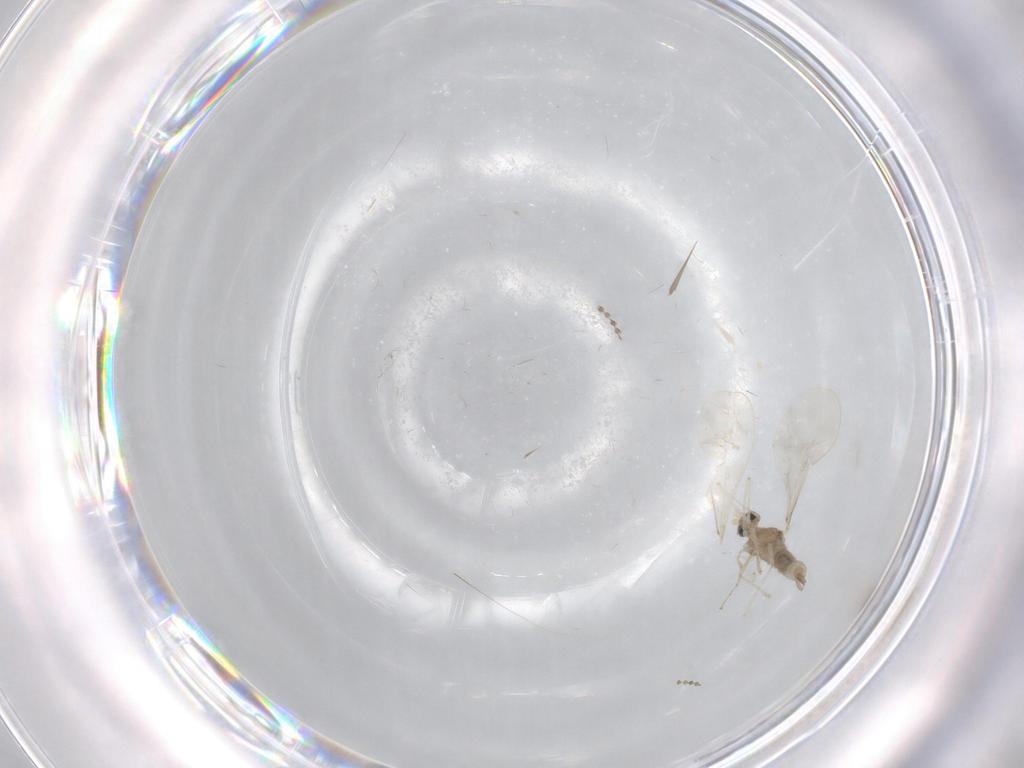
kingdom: Animalia
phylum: Arthropoda
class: Insecta
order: Diptera
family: Cecidomyiidae
